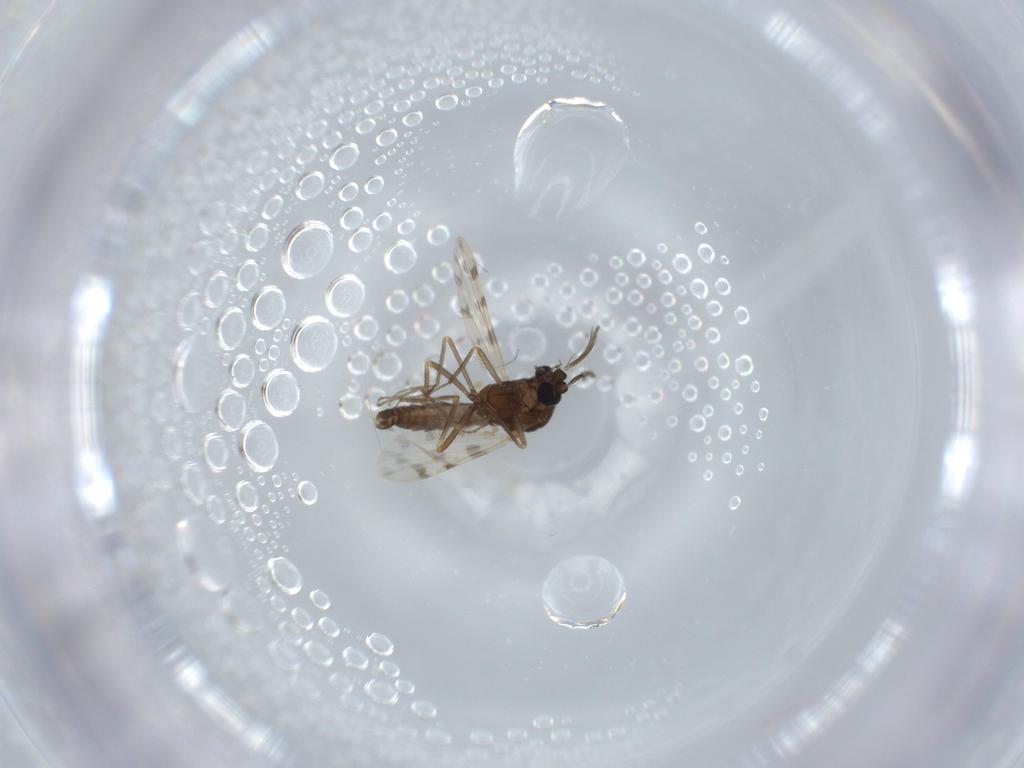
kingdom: Animalia
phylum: Arthropoda
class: Insecta
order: Diptera
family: Ceratopogonidae
